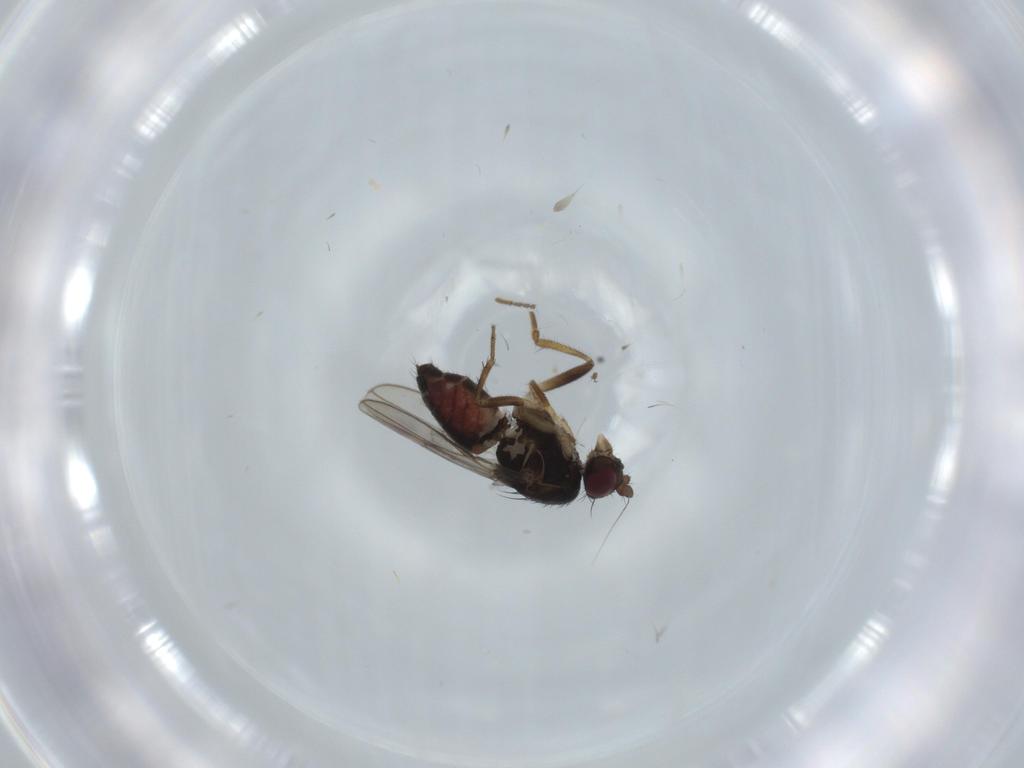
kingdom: Animalia
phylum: Arthropoda
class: Insecta
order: Diptera
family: Sphaeroceridae
